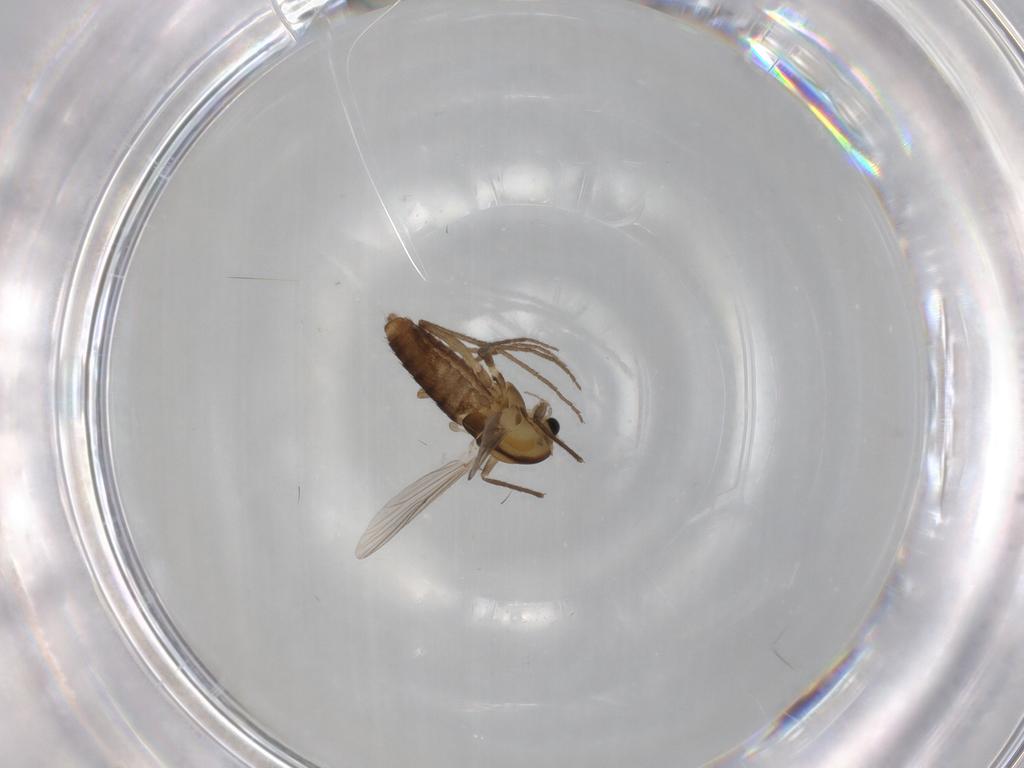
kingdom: Animalia
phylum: Arthropoda
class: Insecta
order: Diptera
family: Chironomidae
